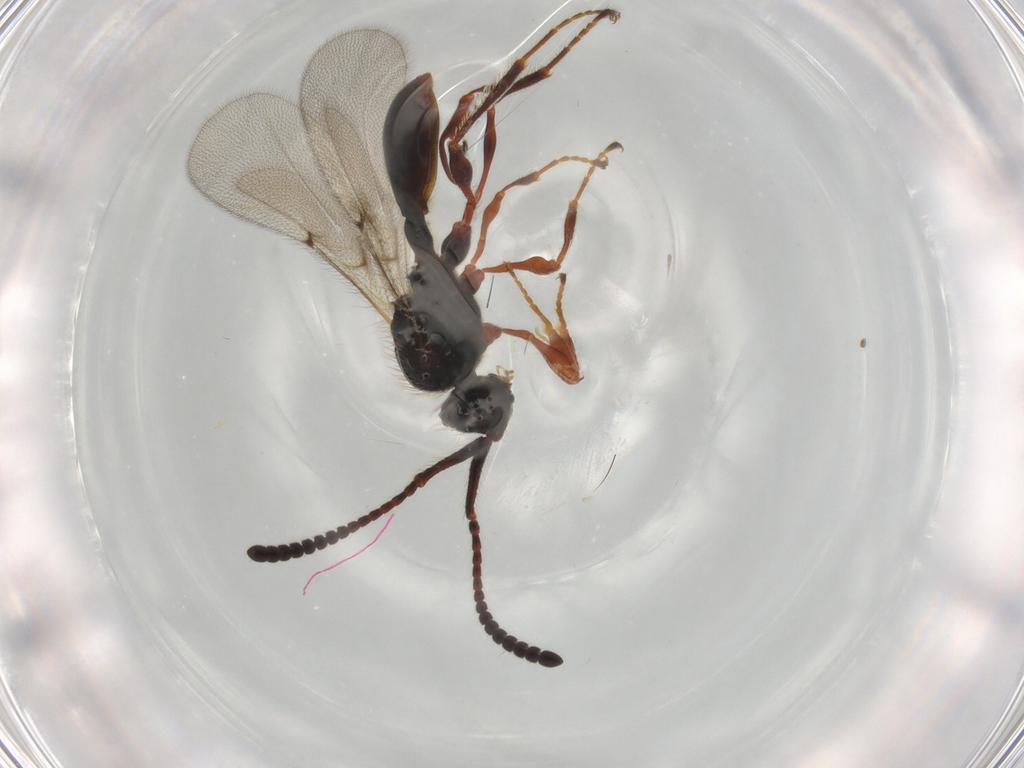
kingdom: Animalia
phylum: Arthropoda
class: Insecta
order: Hymenoptera
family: Diapriidae
